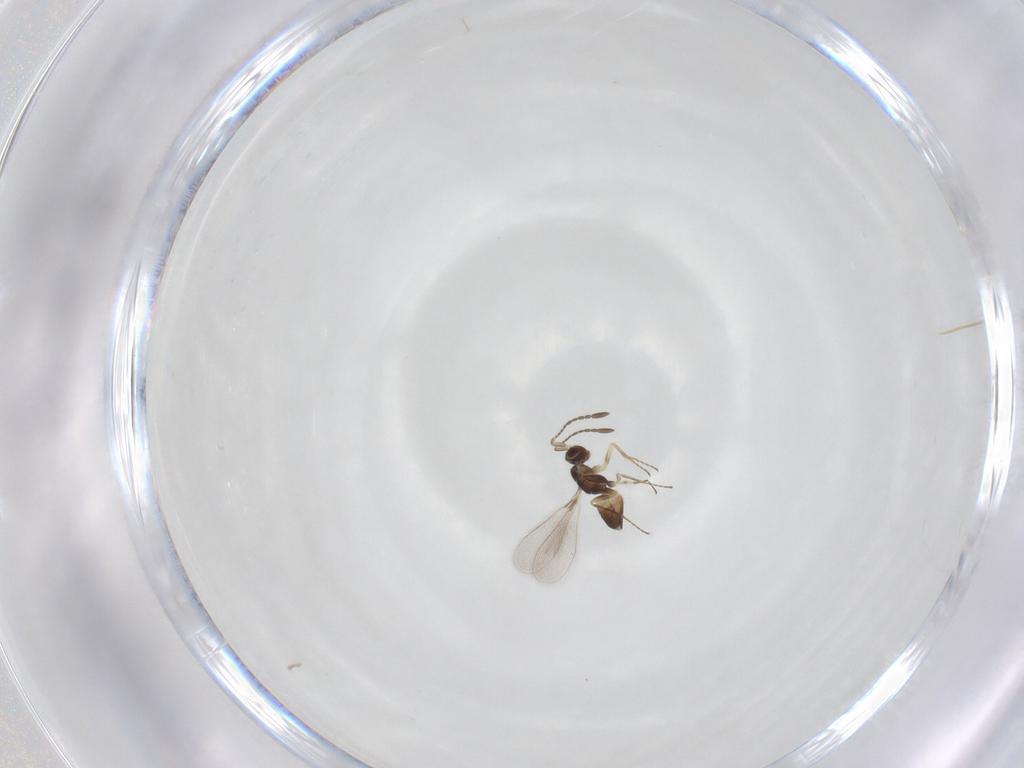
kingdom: Animalia
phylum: Arthropoda
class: Insecta
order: Hymenoptera
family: Mymaridae
